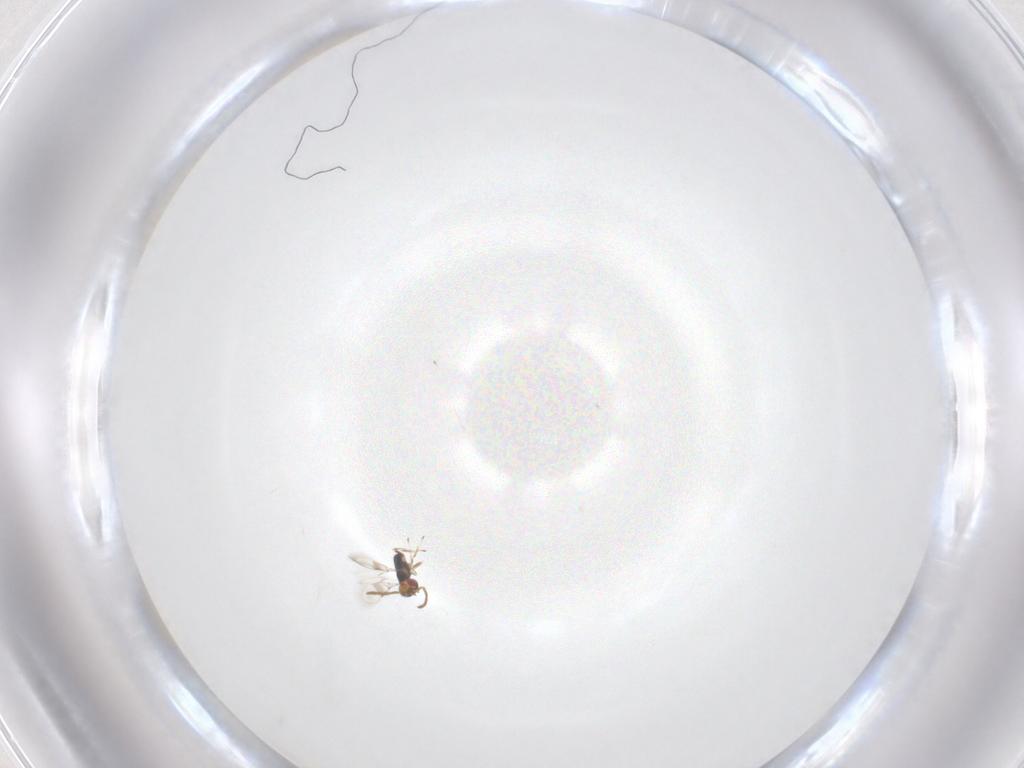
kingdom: Animalia
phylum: Arthropoda
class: Insecta
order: Hymenoptera
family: Azotidae
